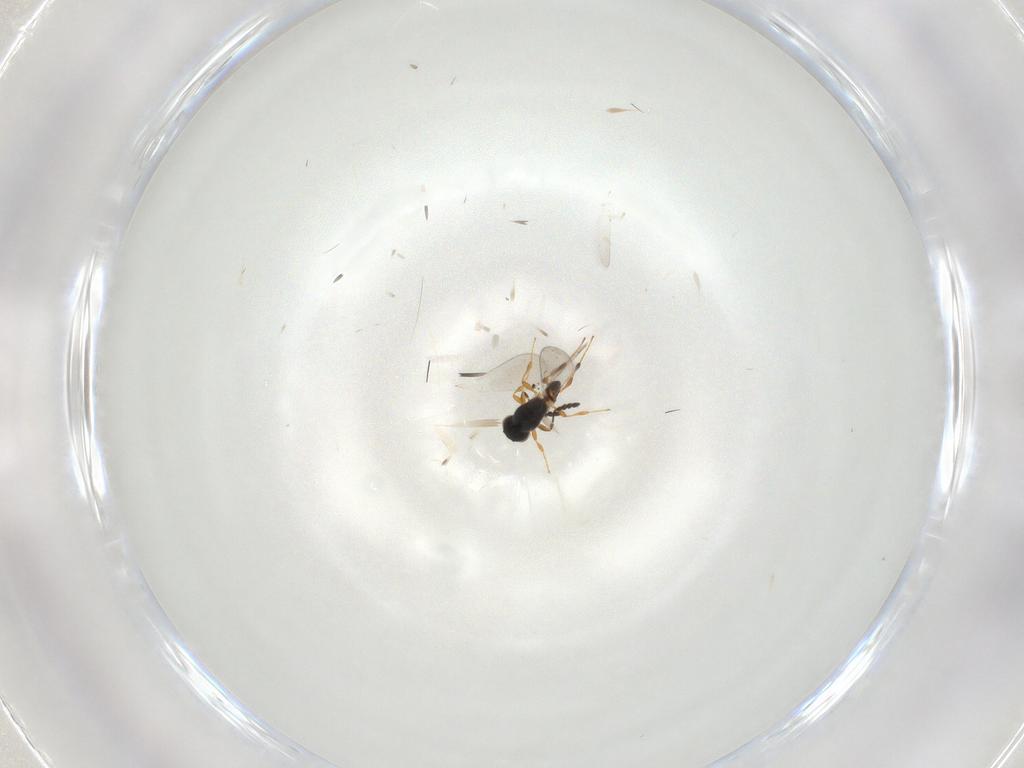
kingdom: Animalia
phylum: Arthropoda
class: Insecta
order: Hymenoptera
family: Platygastridae
